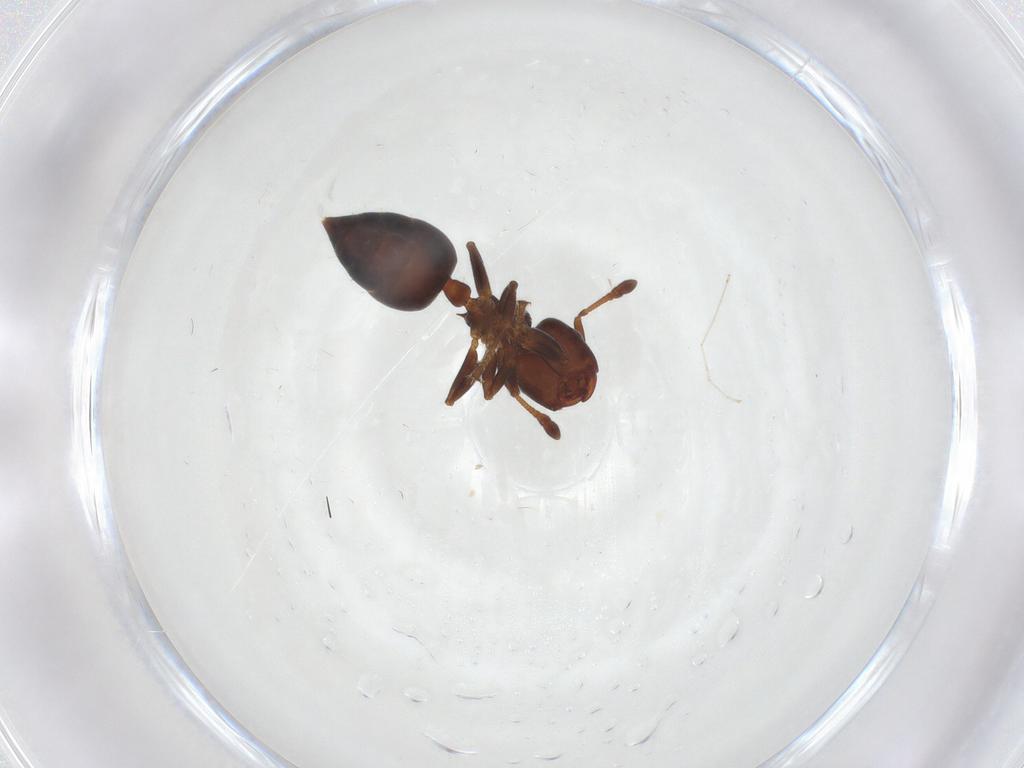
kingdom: Animalia
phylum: Arthropoda
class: Insecta
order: Hymenoptera
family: Formicidae
